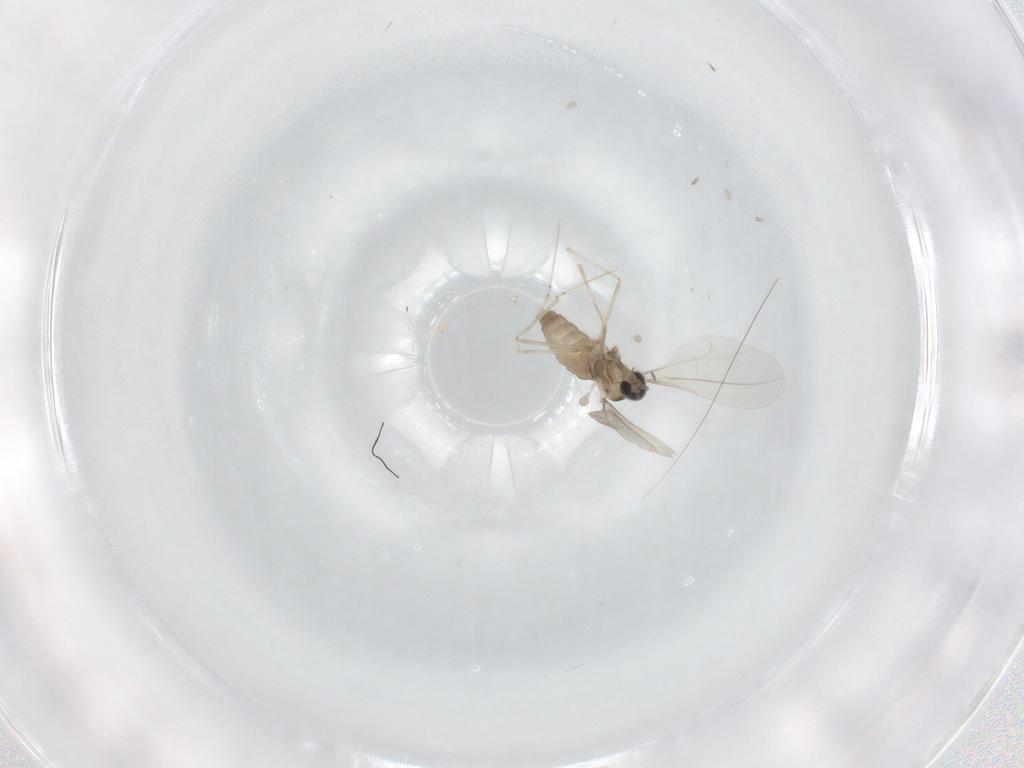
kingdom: Animalia
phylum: Arthropoda
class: Insecta
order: Diptera
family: Cecidomyiidae
